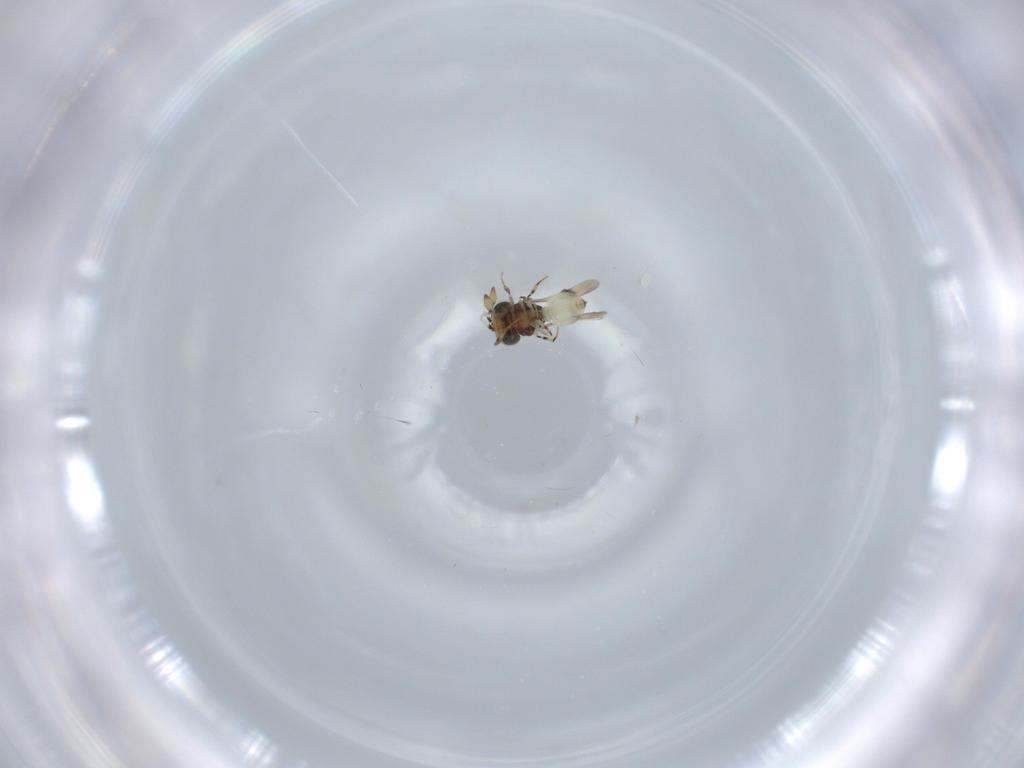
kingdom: Animalia
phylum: Arthropoda
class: Insecta
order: Hymenoptera
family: Scelionidae
